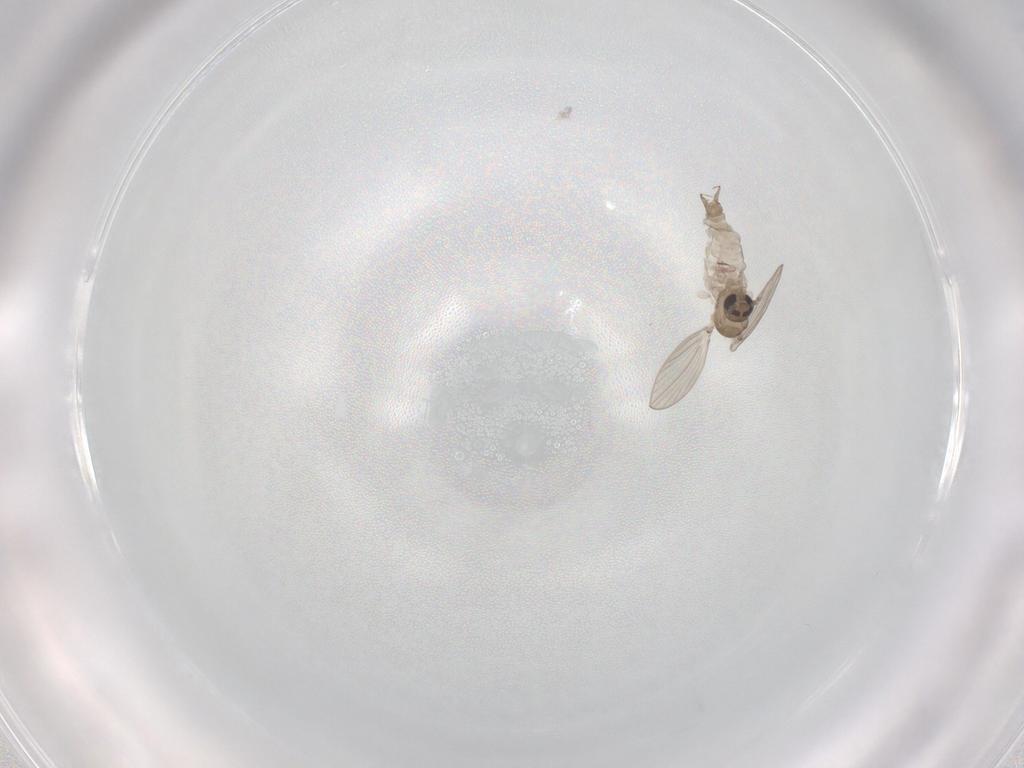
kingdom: Animalia
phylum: Arthropoda
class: Insecta
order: Diptera
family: Psychodidae
